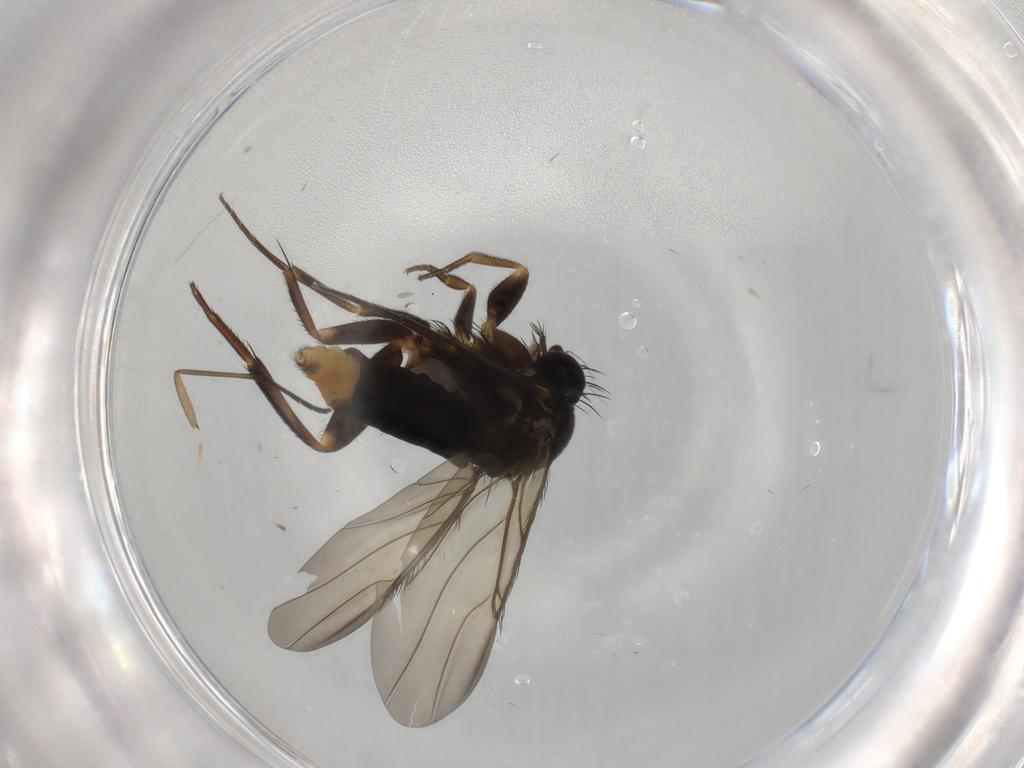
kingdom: Animalia
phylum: Arthropoda
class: Insecta
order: Diptera
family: Phoridae
